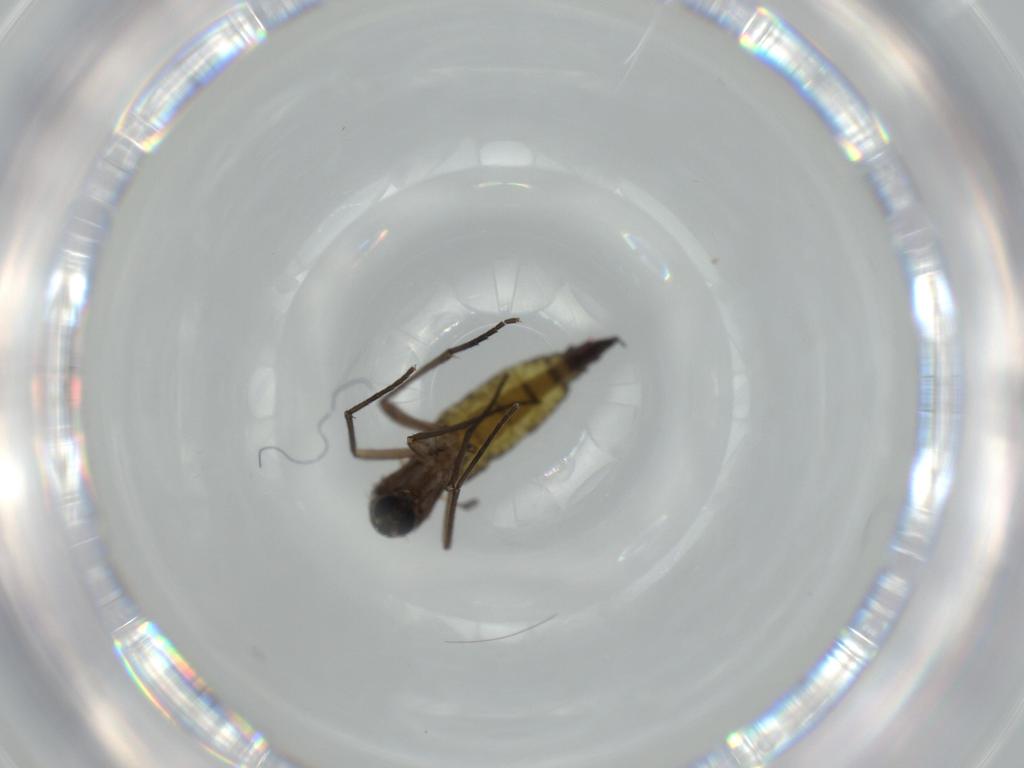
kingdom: Animalia
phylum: Arthropoda
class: Insecta
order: Diptera
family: Sciaridae
